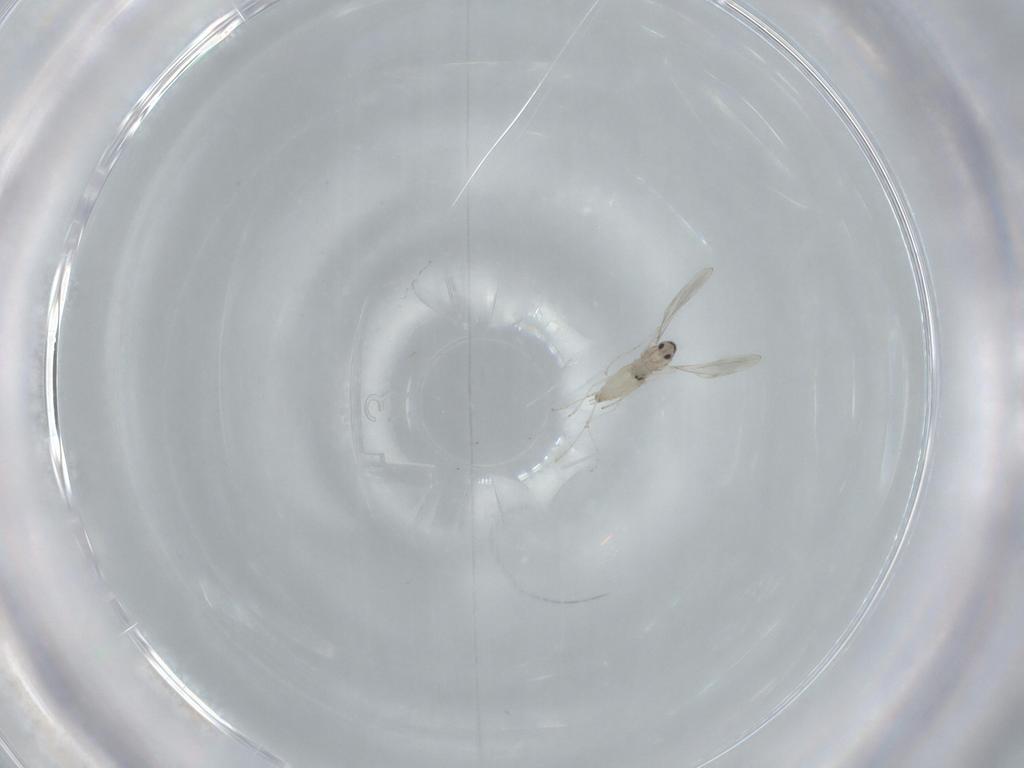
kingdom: Animalia
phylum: Arthropoda
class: Insecta
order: Diptera
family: Cecidomyiidae
